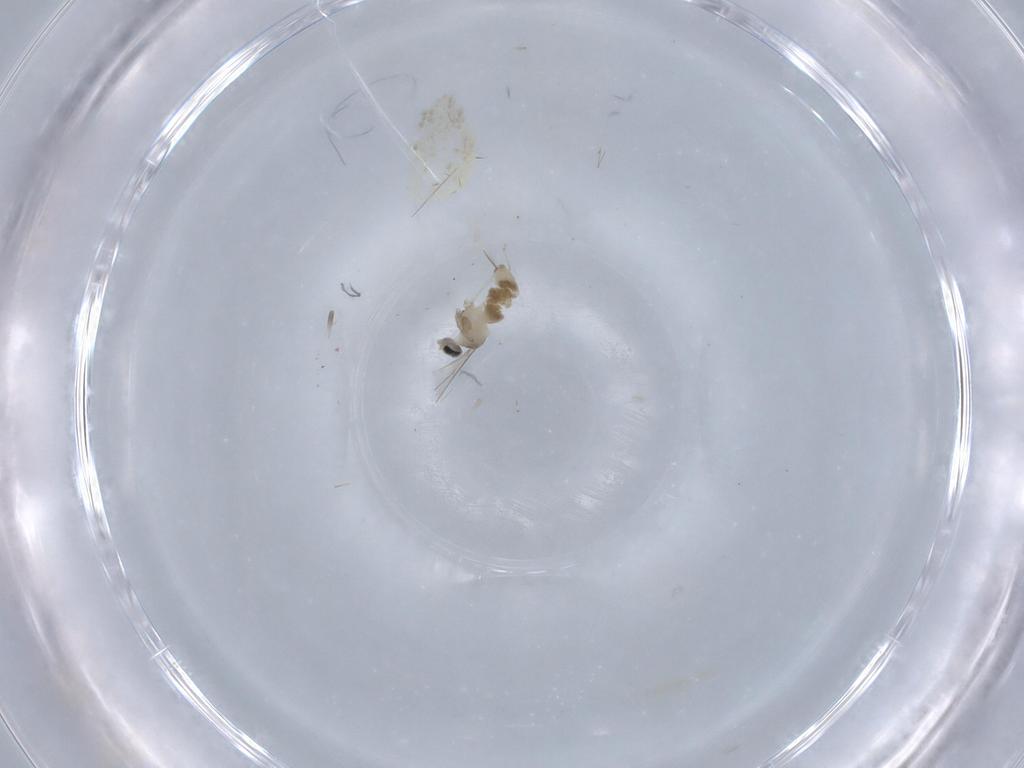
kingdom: Animalia
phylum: Arthropoda
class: Insecta
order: Diptera
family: Cecidomyiidae
